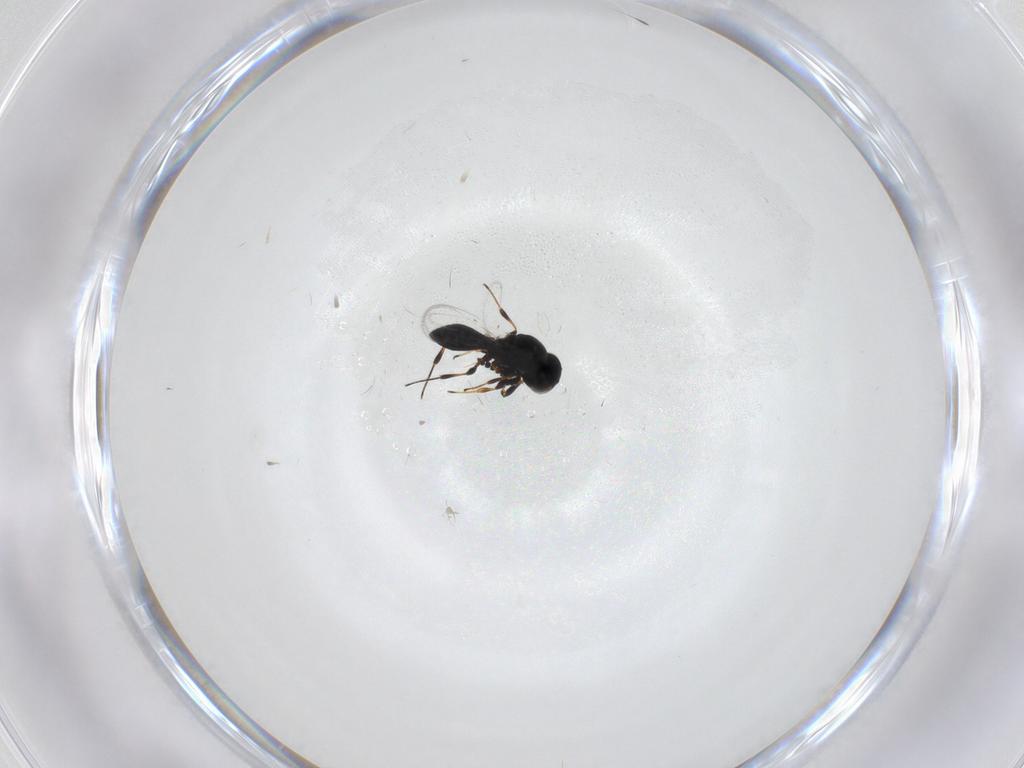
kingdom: Animalia
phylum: Arthropoda
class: Insecta
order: Hymenoptera
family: Platygastridae
